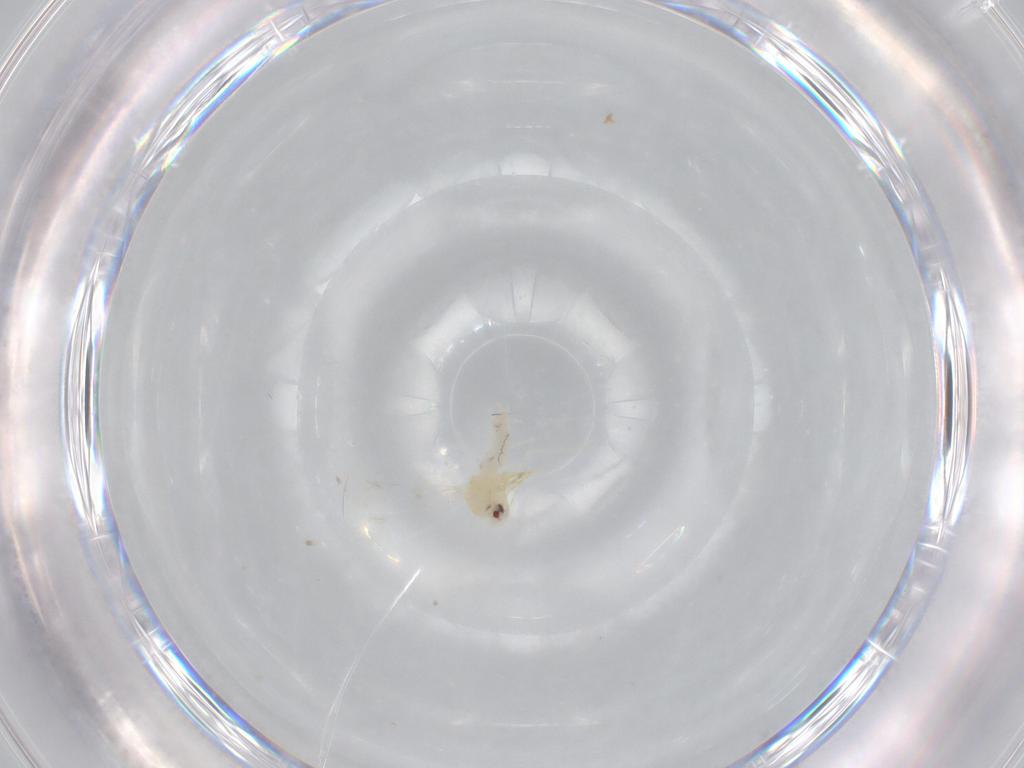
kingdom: Animalia
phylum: Arthropoda
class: Insecta
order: Hemiptera
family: Aleyrodidae
